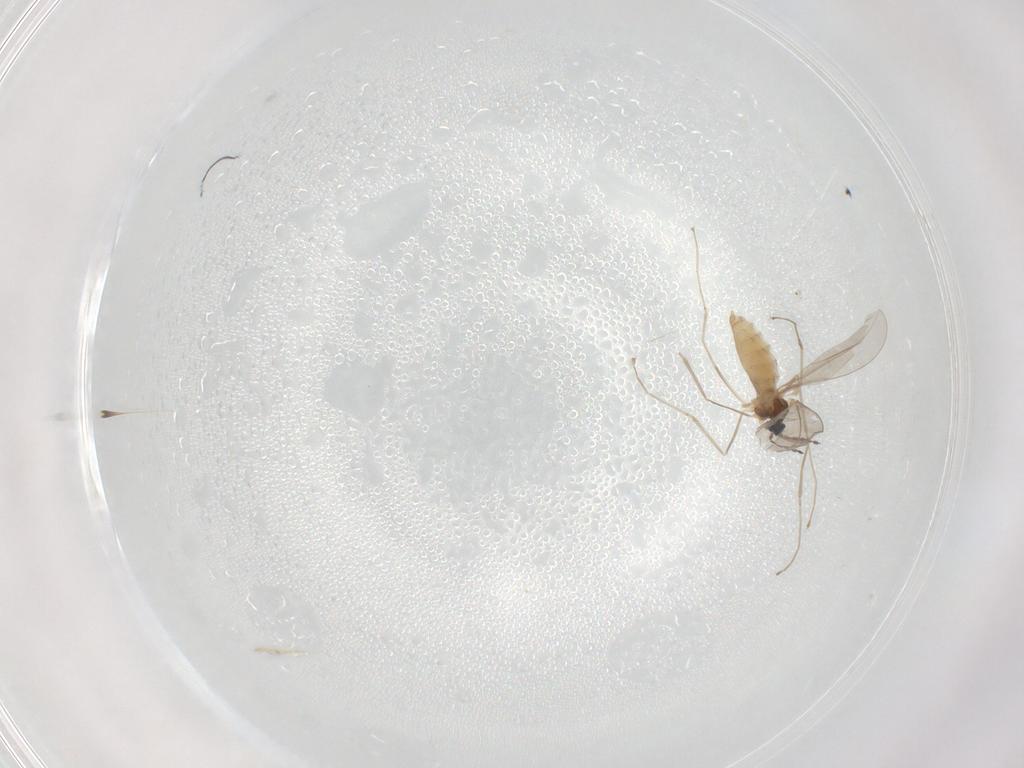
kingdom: Animalia
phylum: Arthropoda
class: Insecta
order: Diptera
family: Cecidomyiidae
